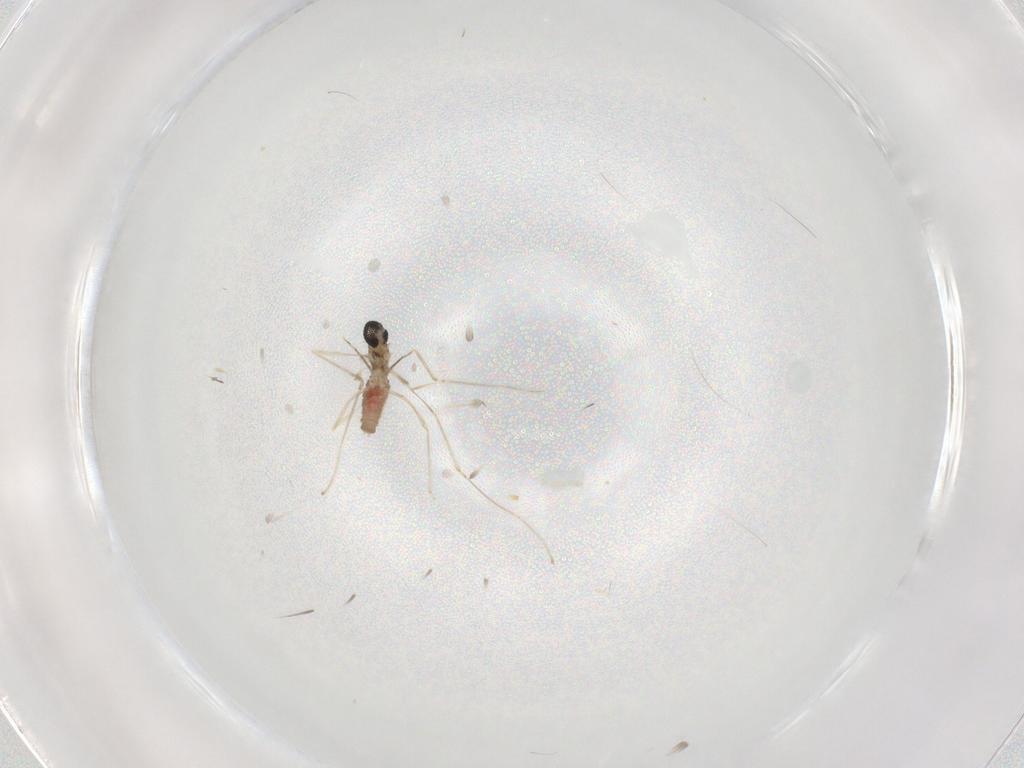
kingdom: Animalia
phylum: Arthropoda
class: Insecta
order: Diptera
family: Cecidomyiidae
